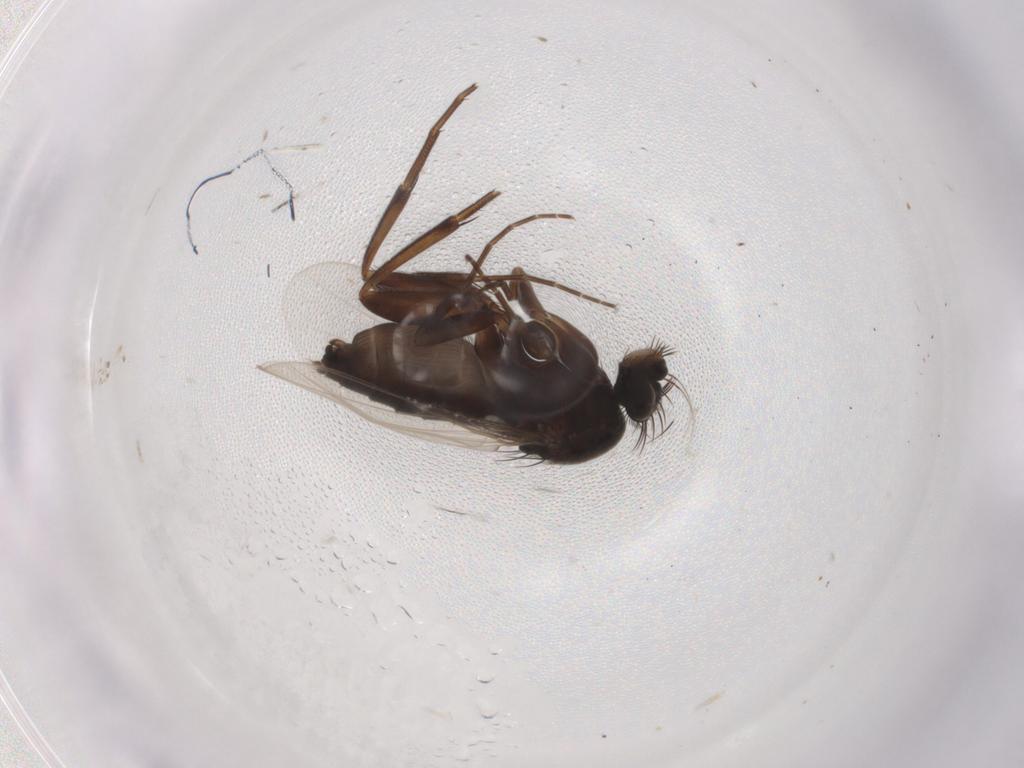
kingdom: Animalia
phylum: Arthropoda
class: Insecta
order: Diptera
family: Phoridae
